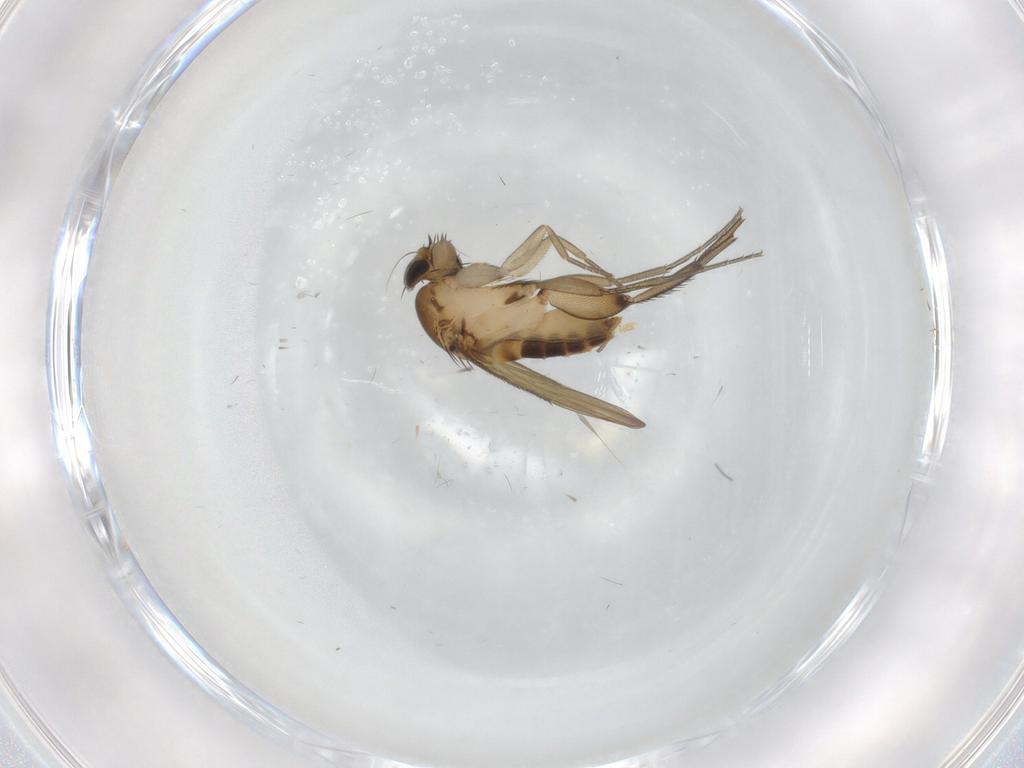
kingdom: Animalia
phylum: Arthropoda
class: Insecta
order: Diptera
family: Phoridae
